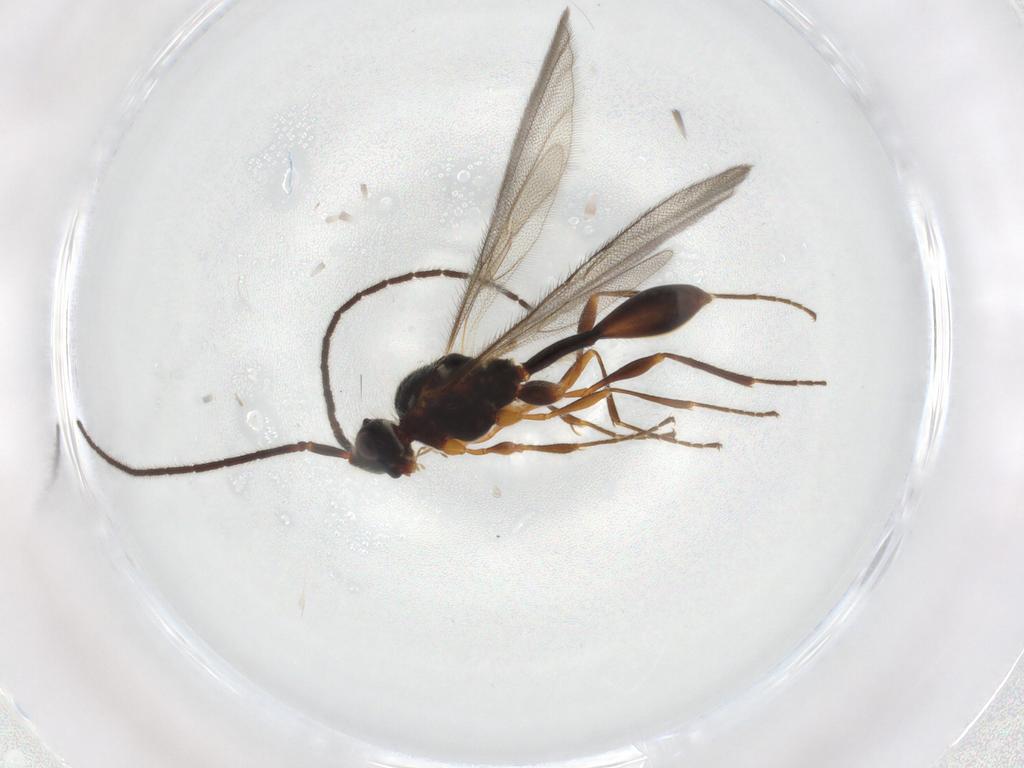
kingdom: Animalia
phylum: Arthropoda
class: Insecta
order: Hymenoptera
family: Diapriidae
